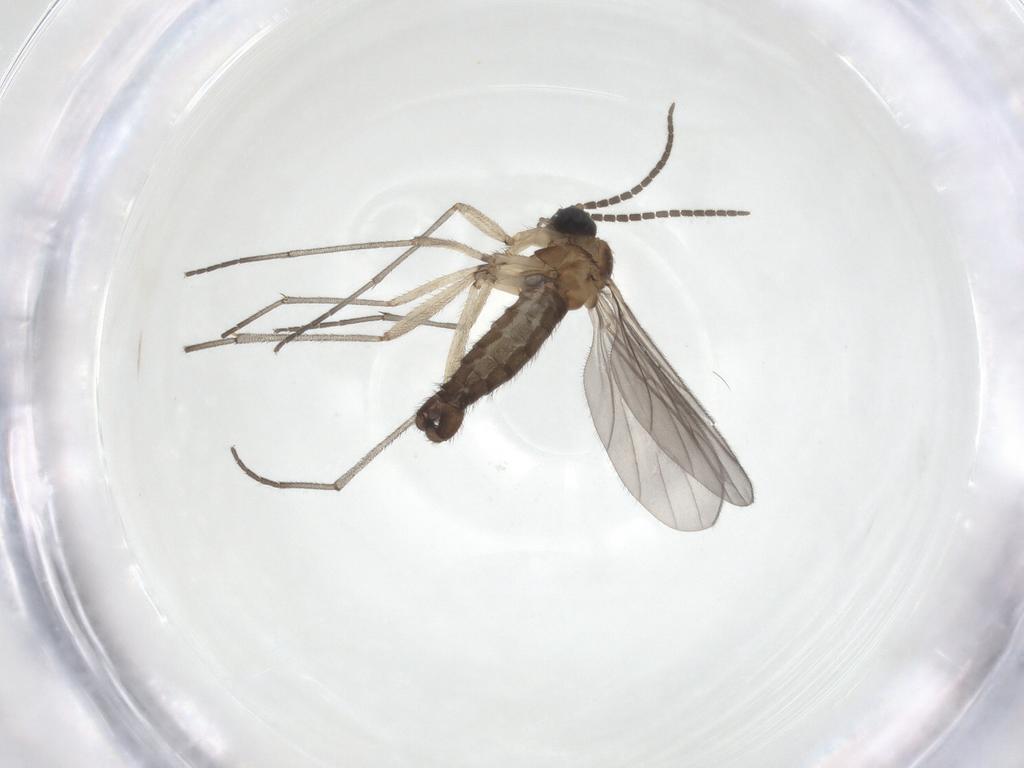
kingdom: Animalia
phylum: Arthropoda
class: Insecta
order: Diptera
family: Sciaridae
